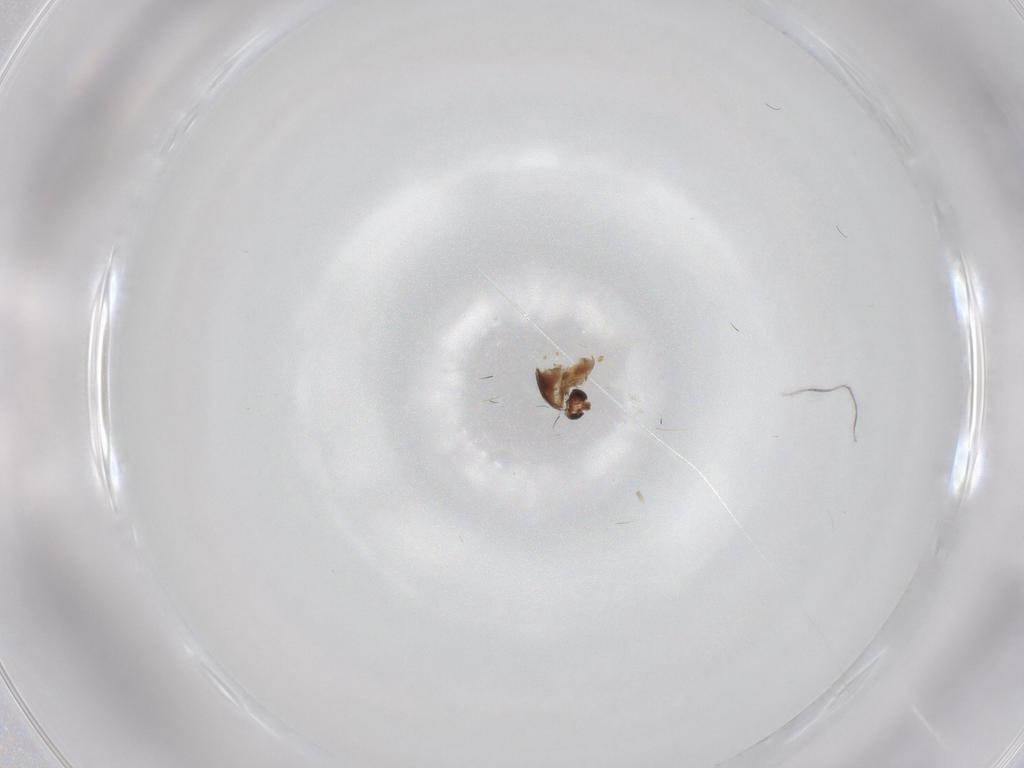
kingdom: Animalia
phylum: Arthropoda
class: Insecta
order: Diptera
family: Chironomidae
